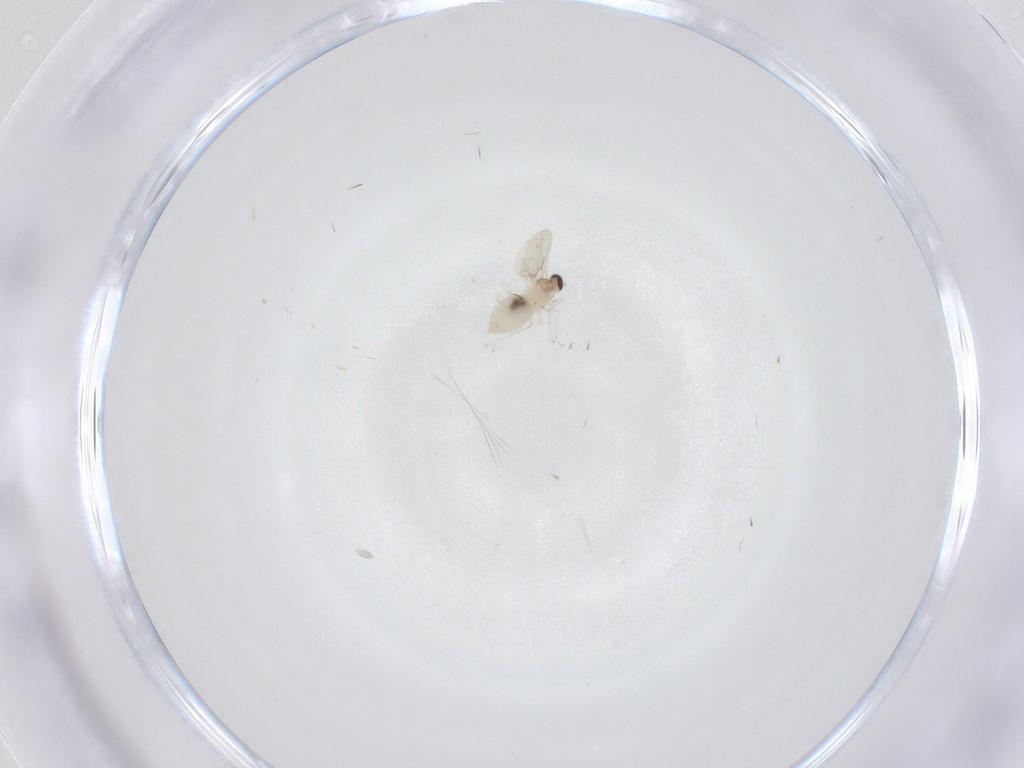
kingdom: Animalia
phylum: Arthropoda
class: Insecta
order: Diptera
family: Cecidomyiidae
